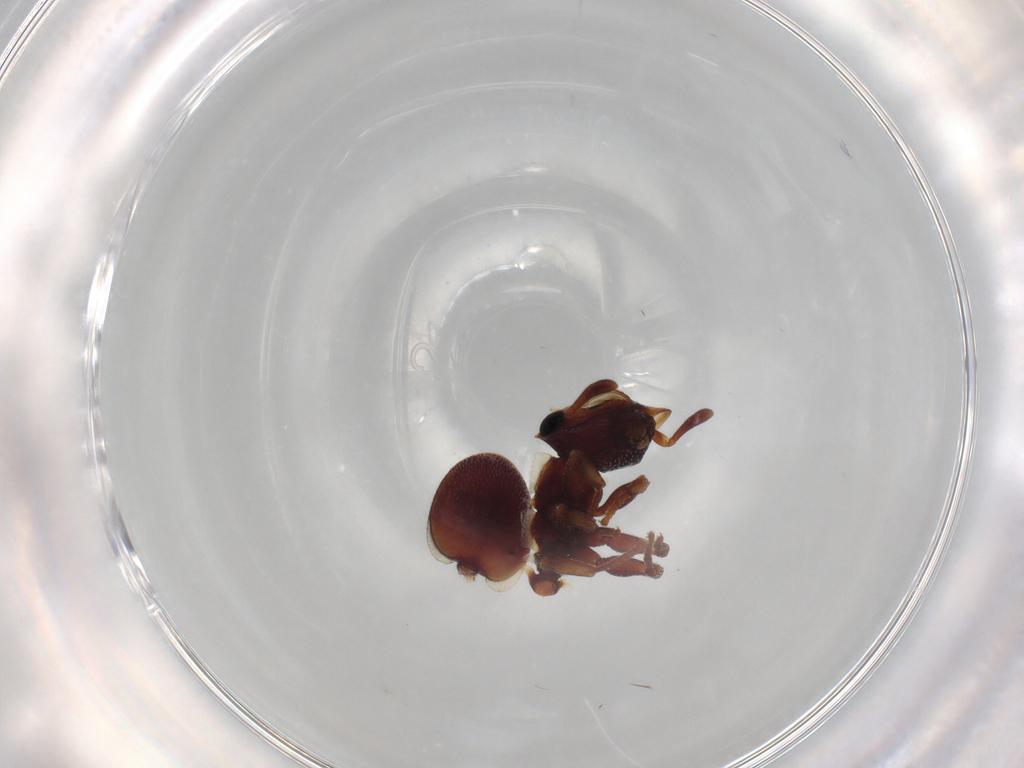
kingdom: Animalia
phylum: Arthropoda
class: Insecta
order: Hymenoptera
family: Formicidae
